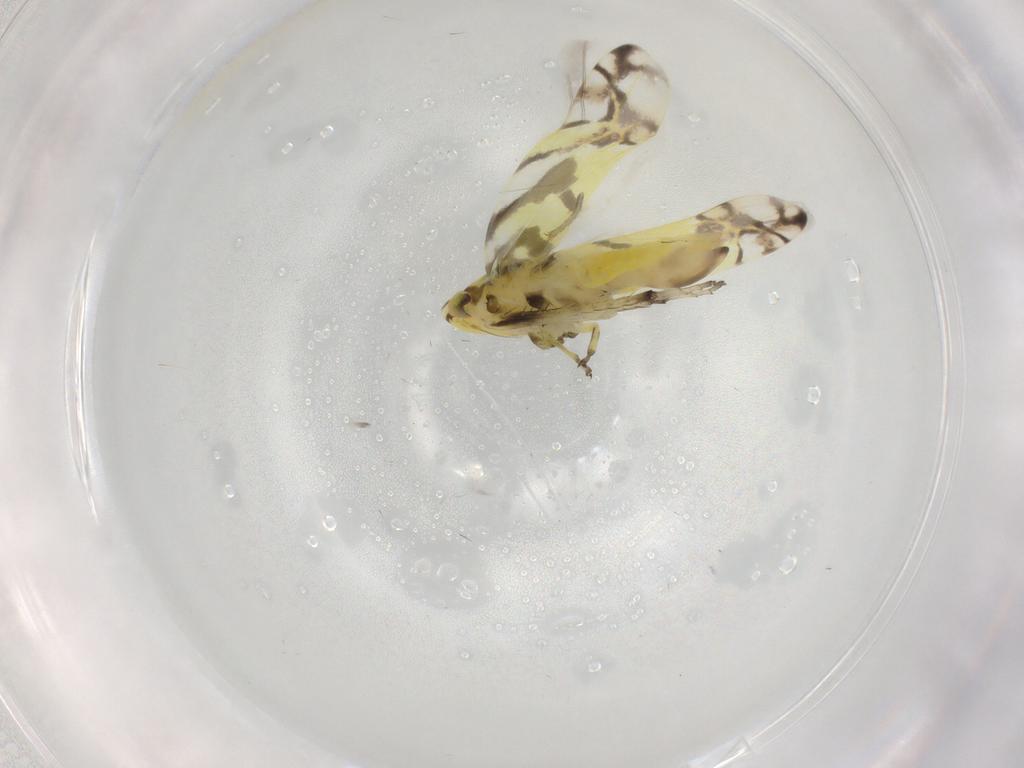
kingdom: Animalia
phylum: Arthropoda
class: Insecta
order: Hemiptera
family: Cicadellidae
